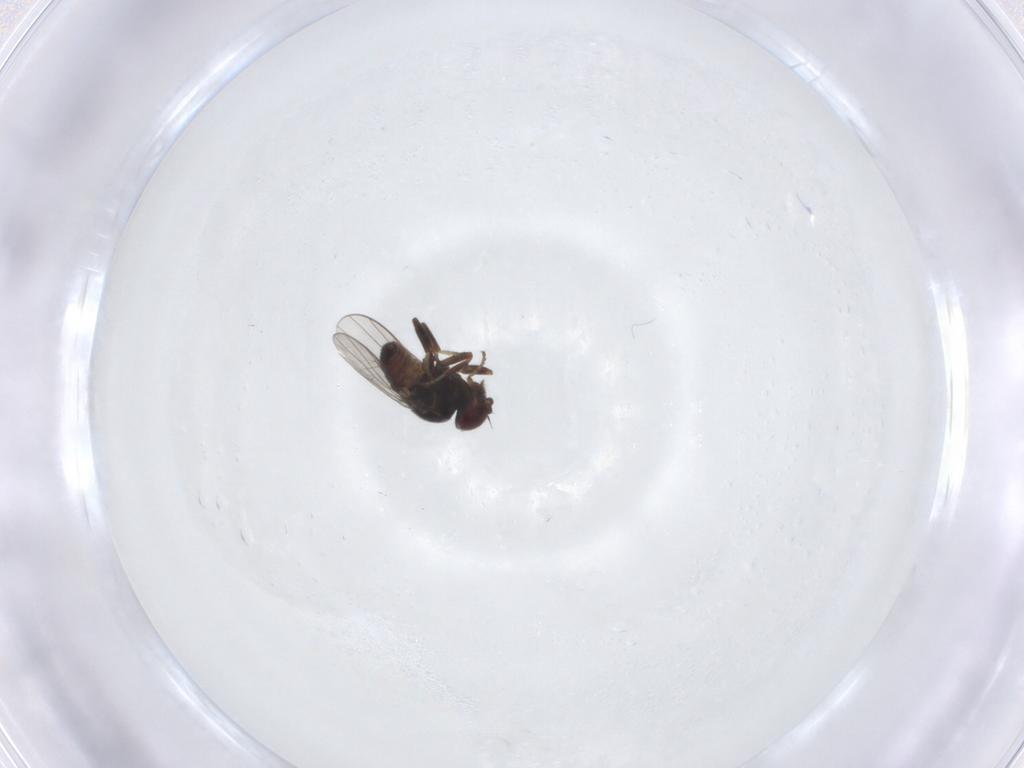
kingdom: Animalia
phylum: Arthropoda
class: Insecta
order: Diptera
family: Chloropidae
